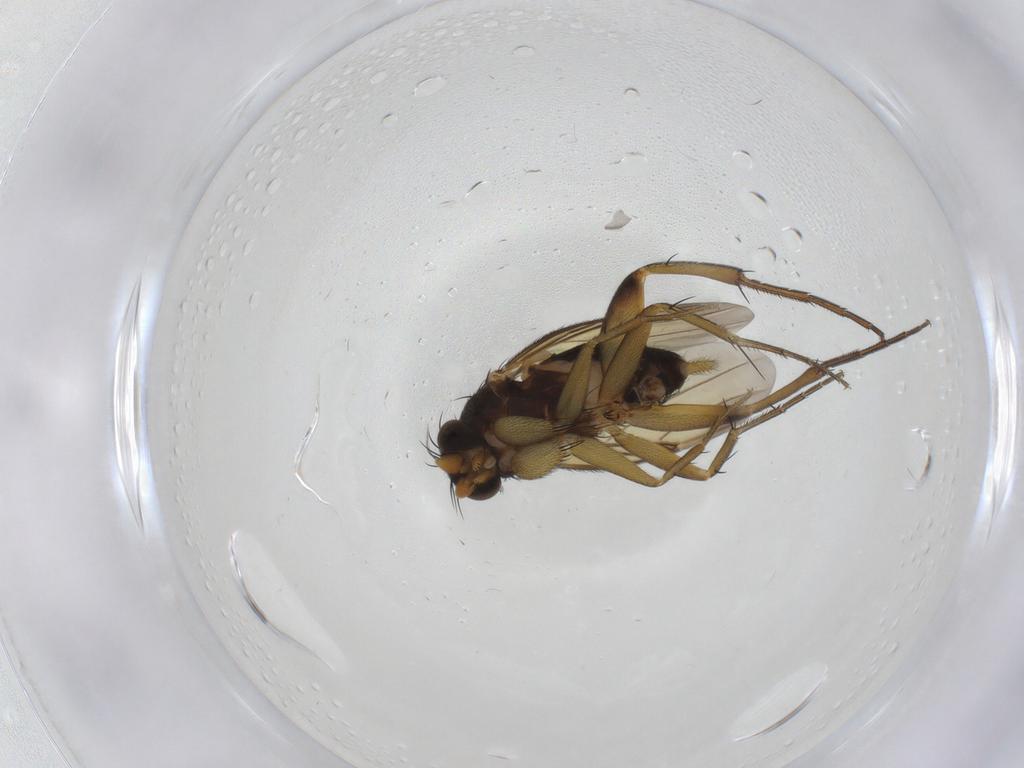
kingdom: Animalia
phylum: Arthropoda
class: Insecta
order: Diptera
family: Phoridae
